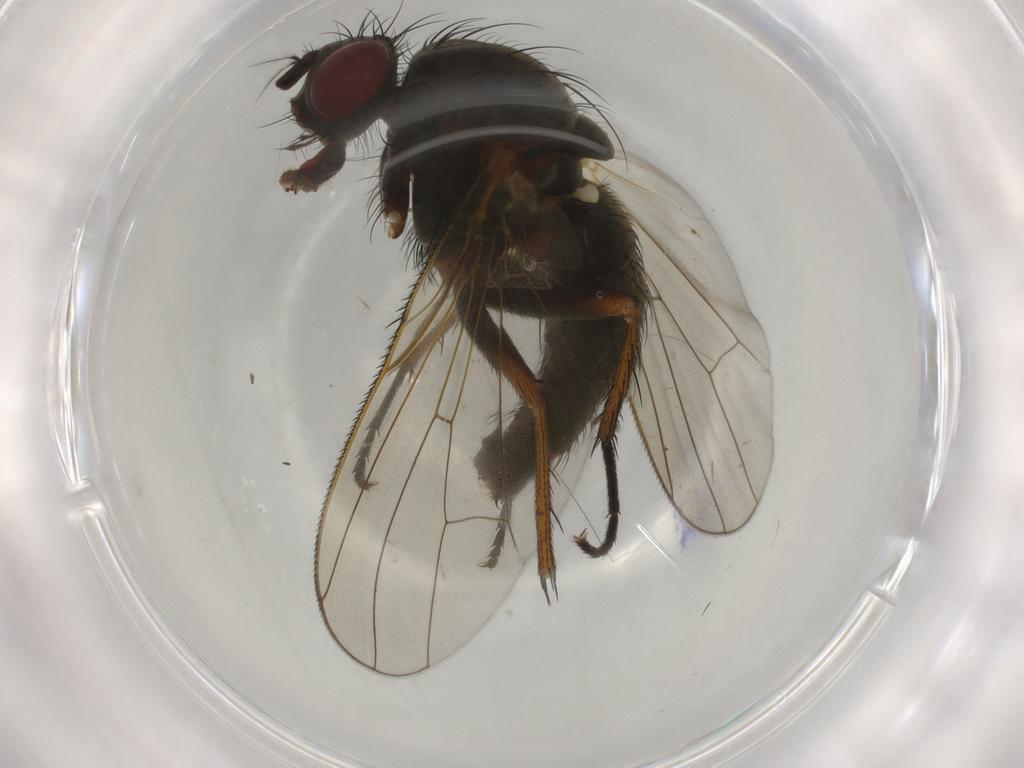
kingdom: Animalia
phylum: Arthropoda
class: Insecta
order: Diptera
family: Anthomyiidae
